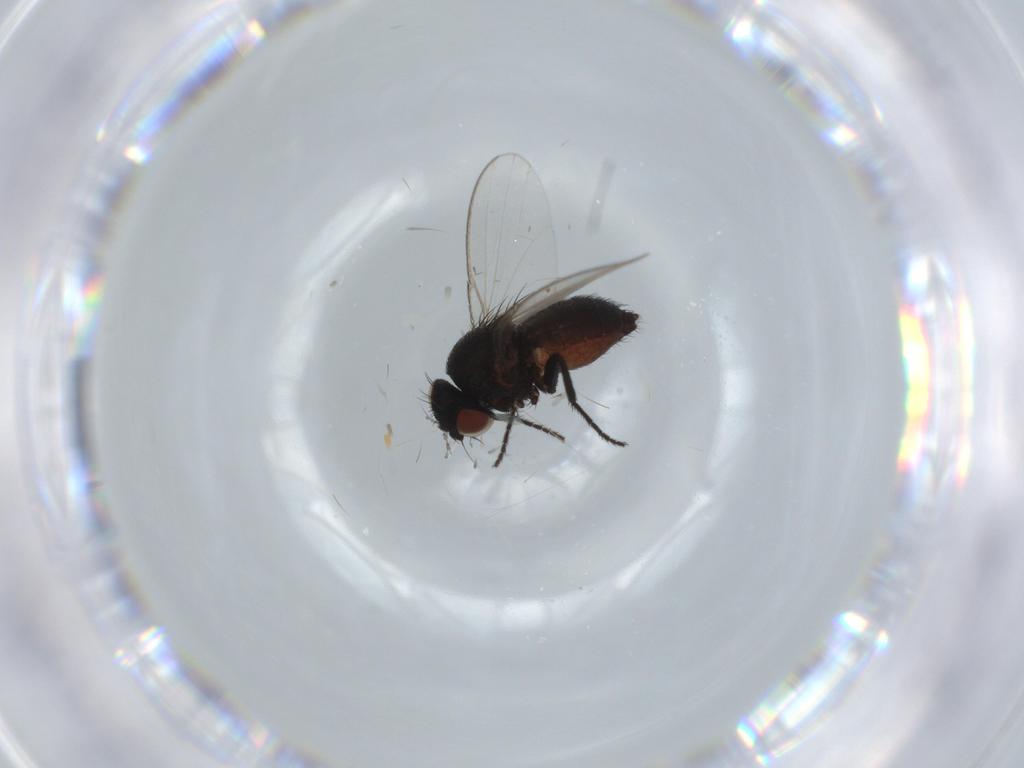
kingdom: Animalia
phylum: Arthropoda
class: Insecta
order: Diptera
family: Milichiidae
